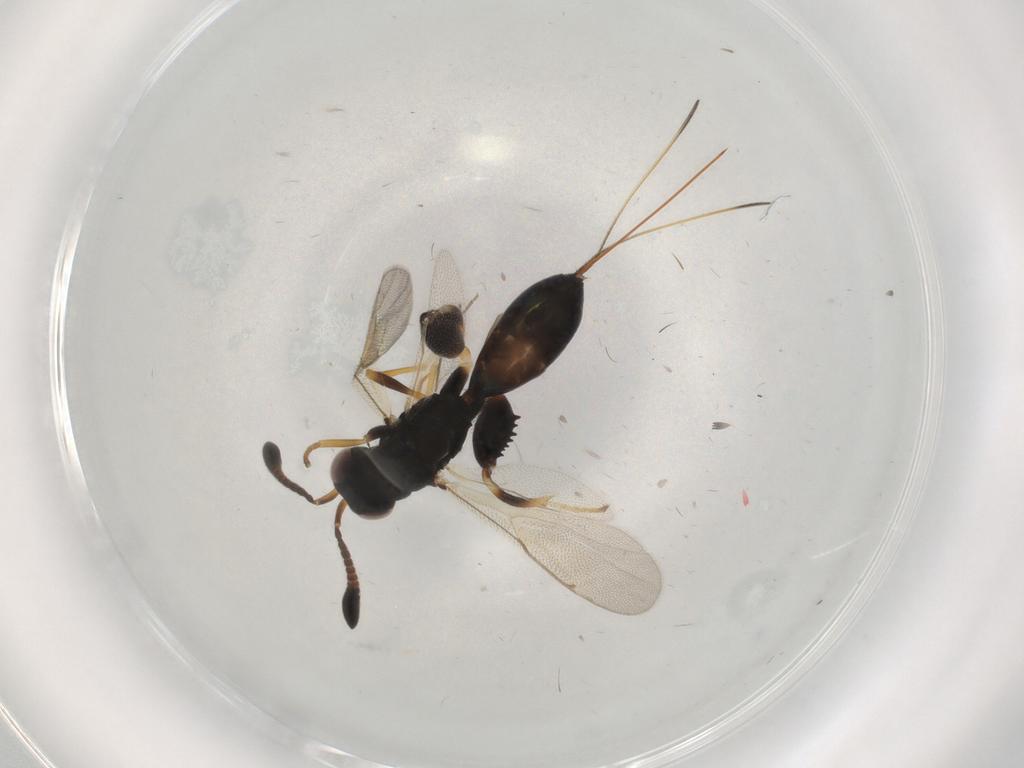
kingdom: Animalia
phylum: Arthropoda
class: Insecta
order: Hymenoptera
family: Torymidae
